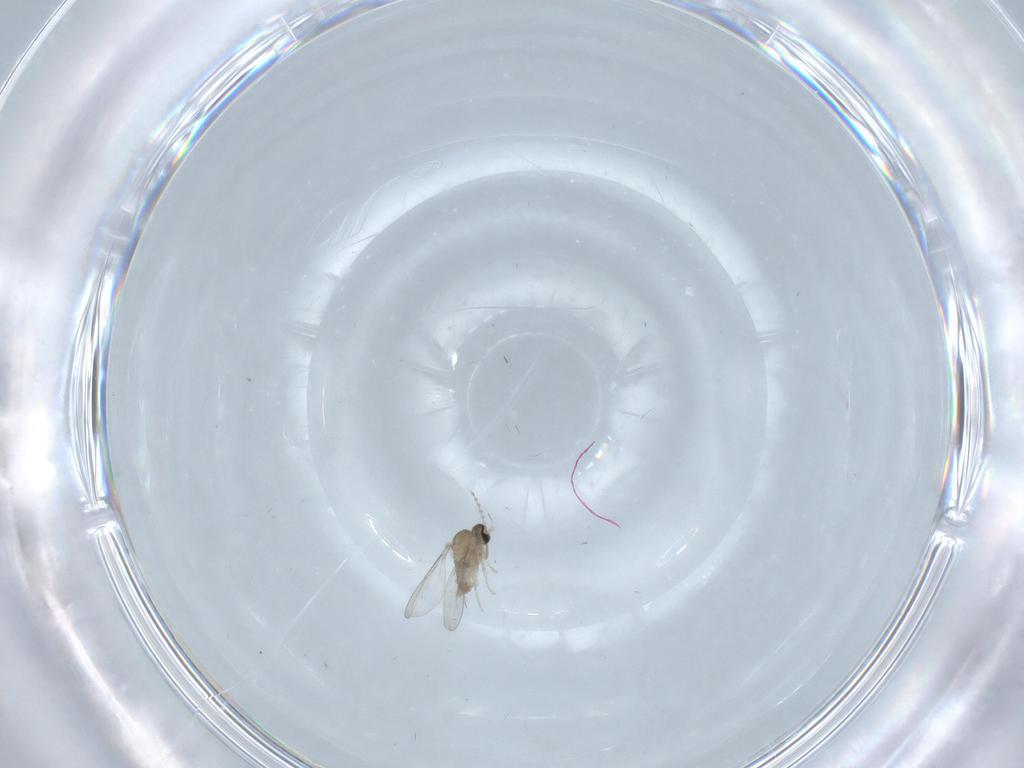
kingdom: Animalia
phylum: Arthropoda
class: Insecta
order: Diptera
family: Cecidomyiidae
